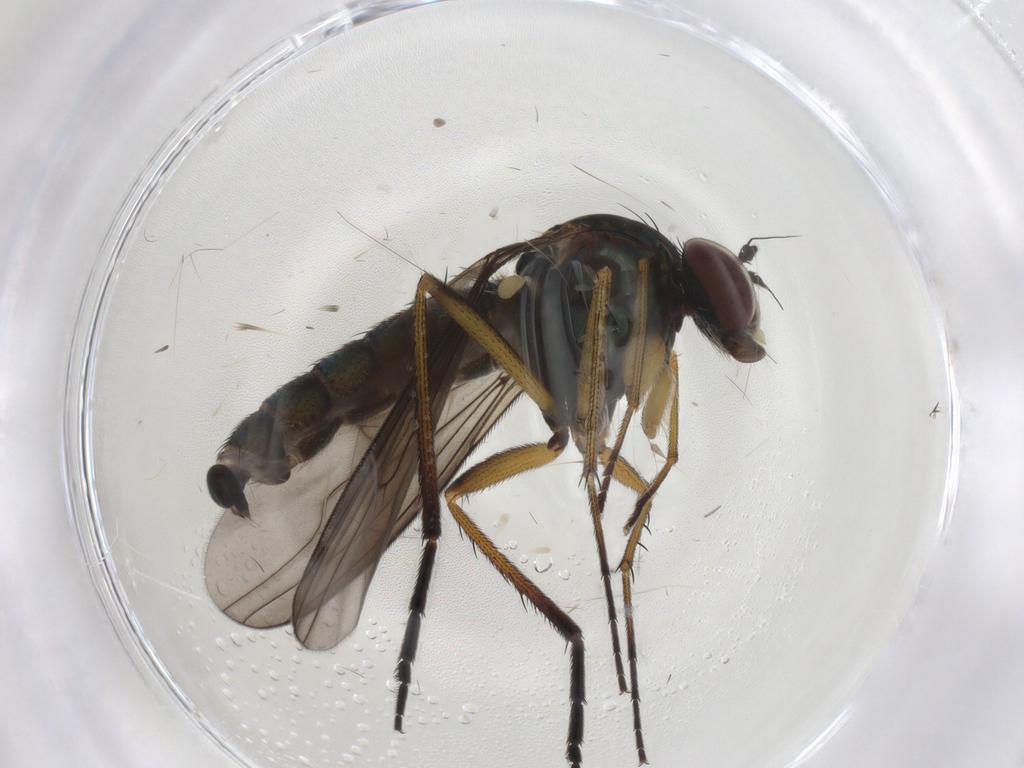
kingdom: Animalia
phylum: Arthropoda
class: Insecta
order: Diptera
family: Dolichopodidae
